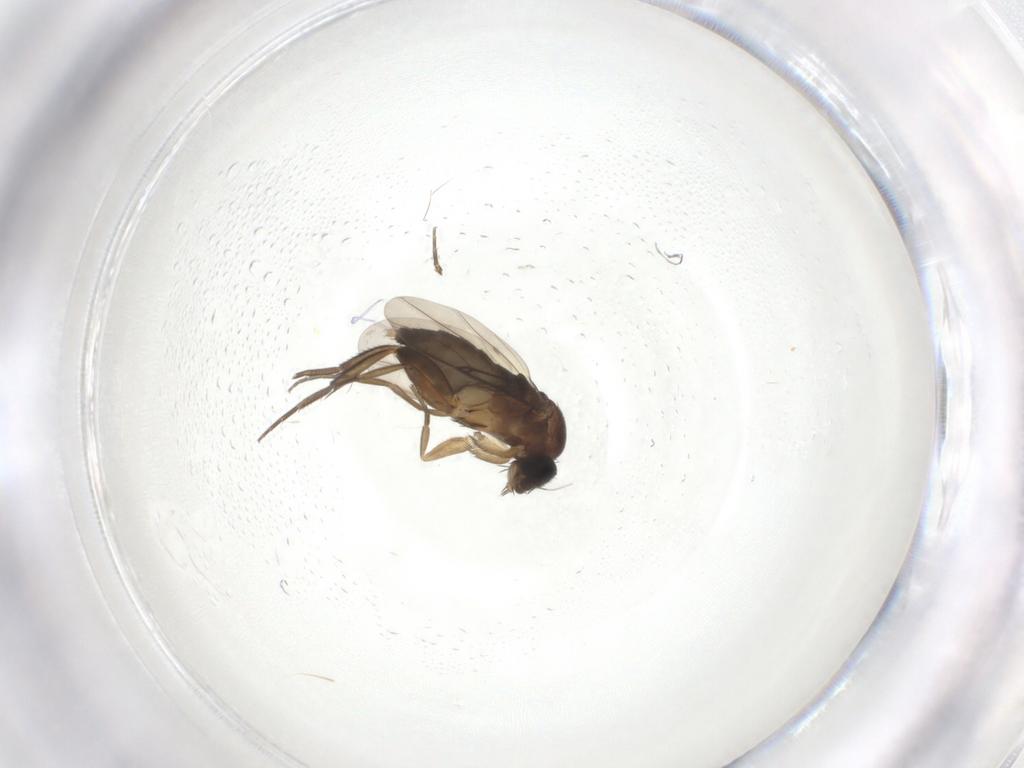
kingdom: Animalia
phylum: Arthropoda
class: Insecta
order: Diptera
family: Phoridae
